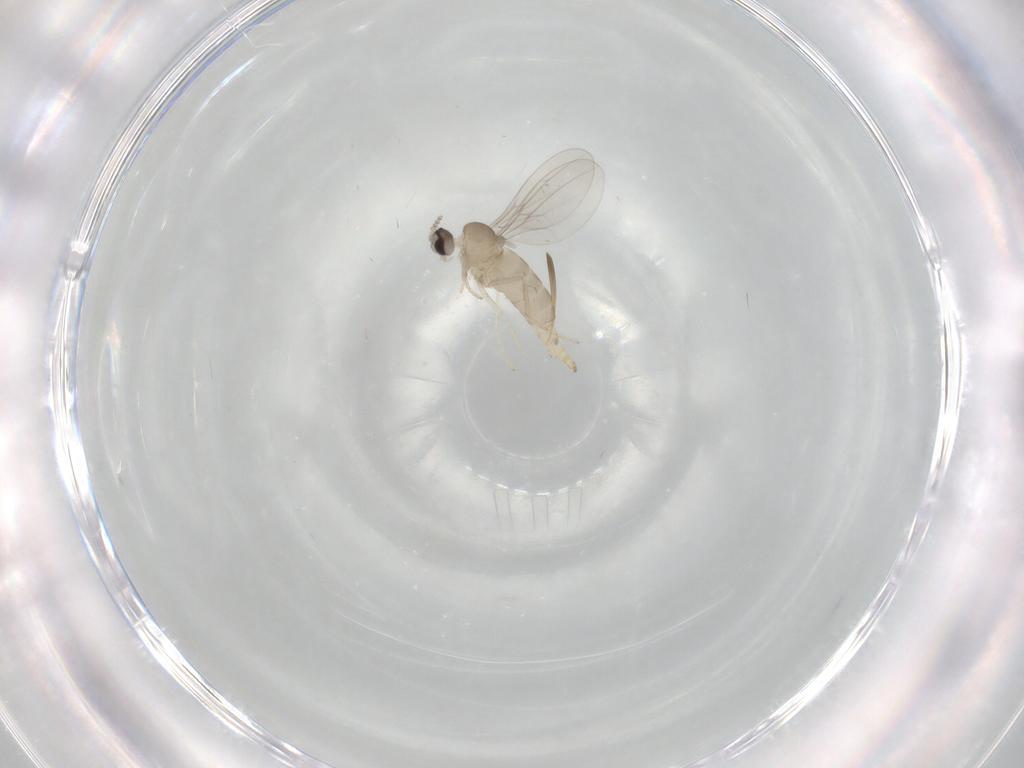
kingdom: Animalia
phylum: Arthropoda
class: Insecta
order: Diptera
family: Cecidomyiidae
